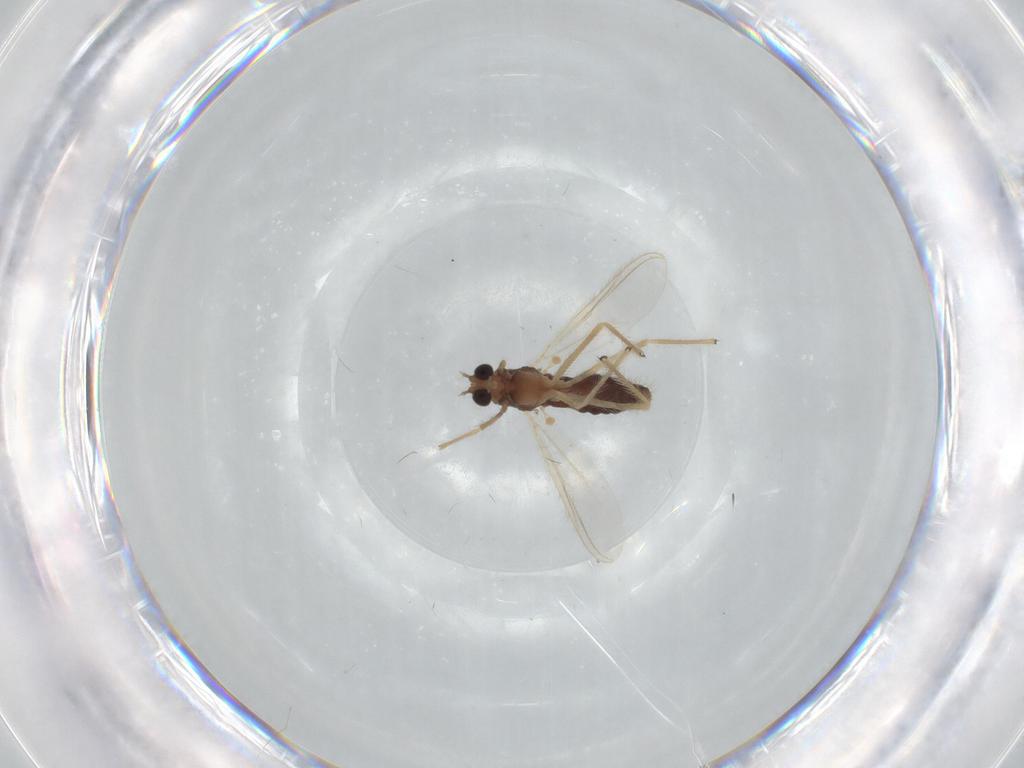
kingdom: Animalia
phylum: Arthropoda
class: Insecta
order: Diptera
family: Chironomidae
